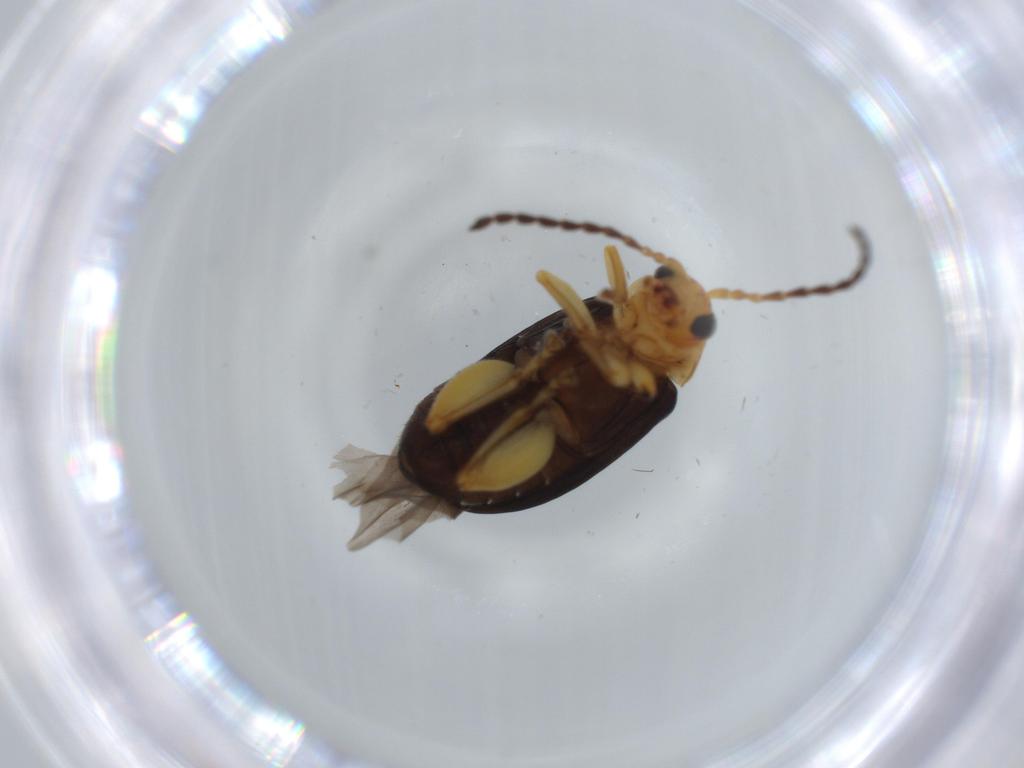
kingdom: Animalia
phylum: Arthropoda
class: Insecta
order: Coleoptera
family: Chrysomelidae
